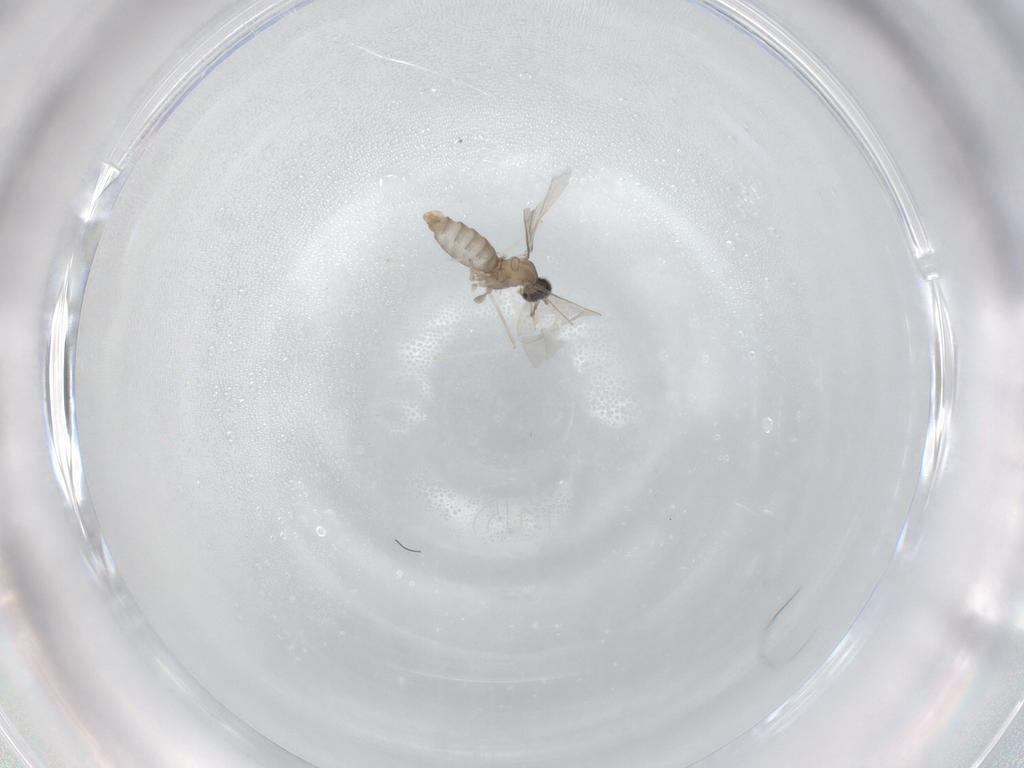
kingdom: Animalia
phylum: Arthropoda
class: Insecta
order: Diptera
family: Cecidomyiidae
